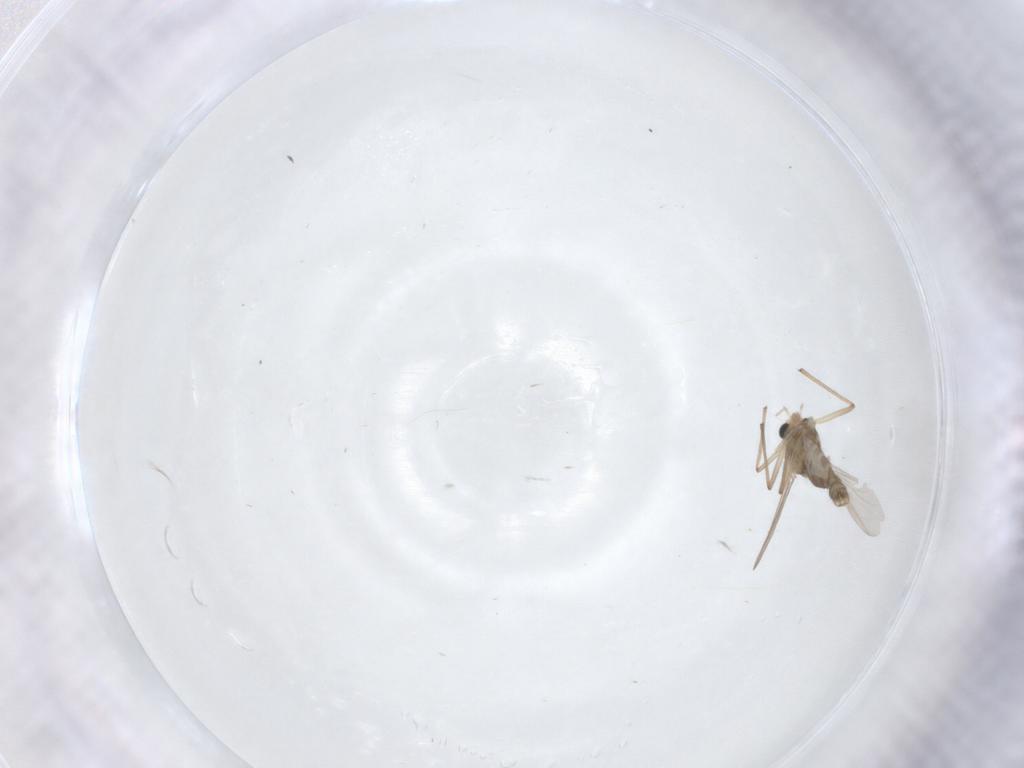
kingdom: Animalia
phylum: Arthropoda
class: Insecta
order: Diptera
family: Chironomidae
